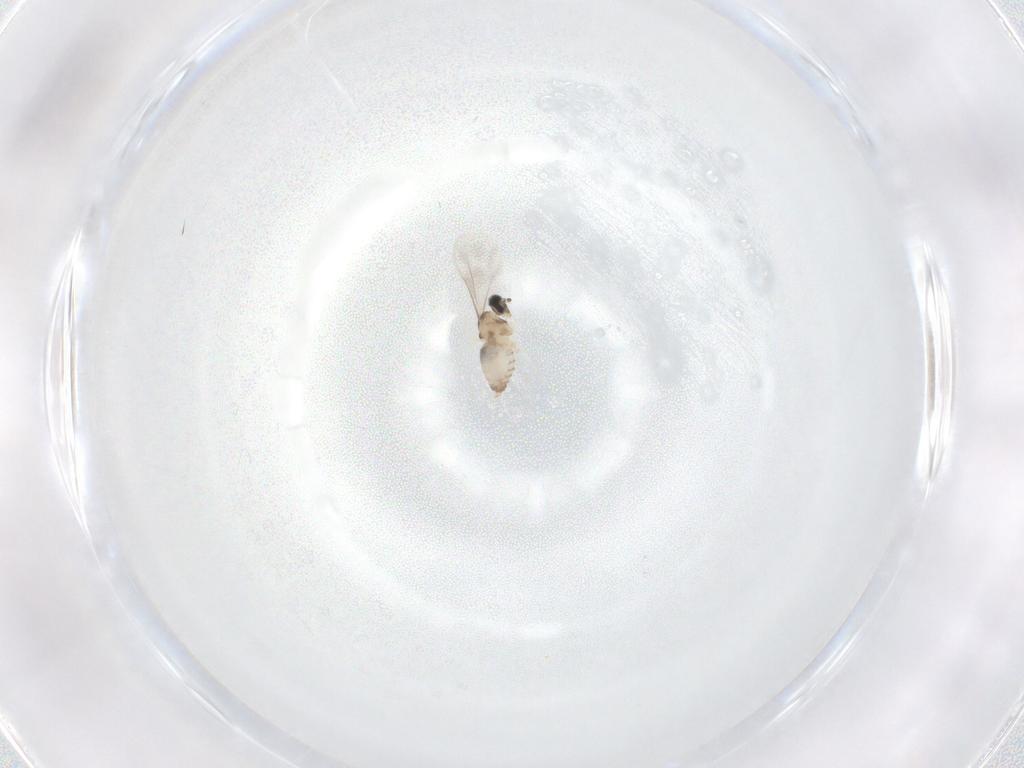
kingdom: Animalia
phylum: Arthropoda
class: Insecta
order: Diptera
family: Cecidomyiidae
